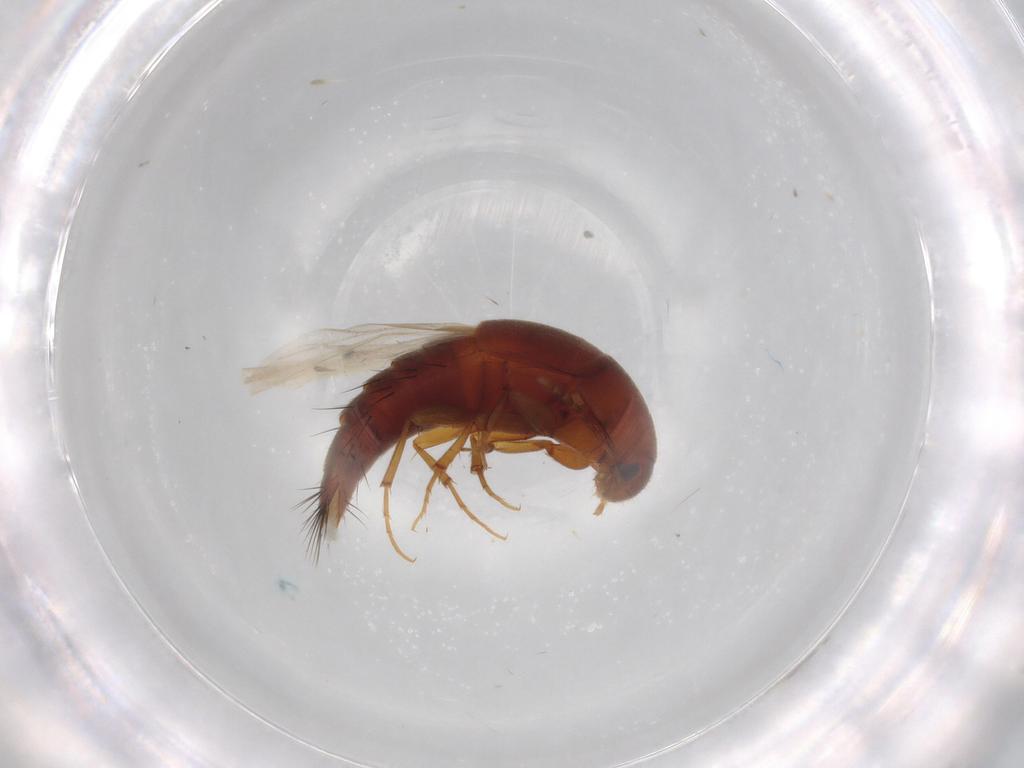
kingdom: Animalia
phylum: Arthropoda
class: Insecta
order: Coleoptera
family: Staphylinidae
